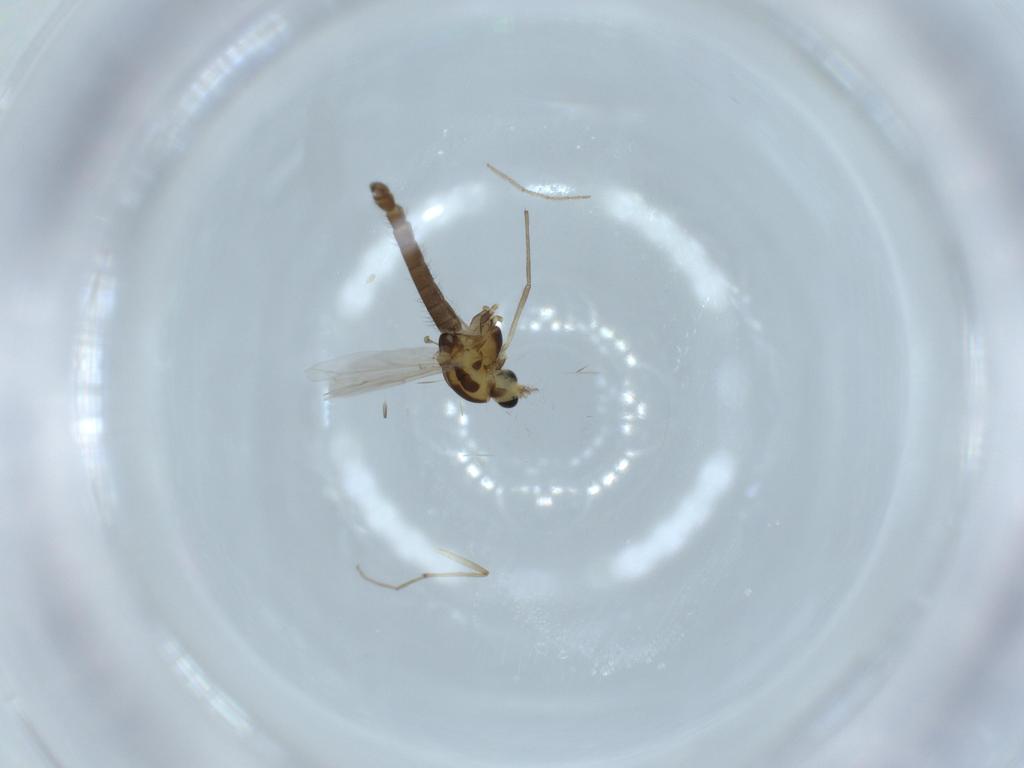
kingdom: Animalia
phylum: Arthropoda
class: Insecta
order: Diptera
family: Chironomidae
